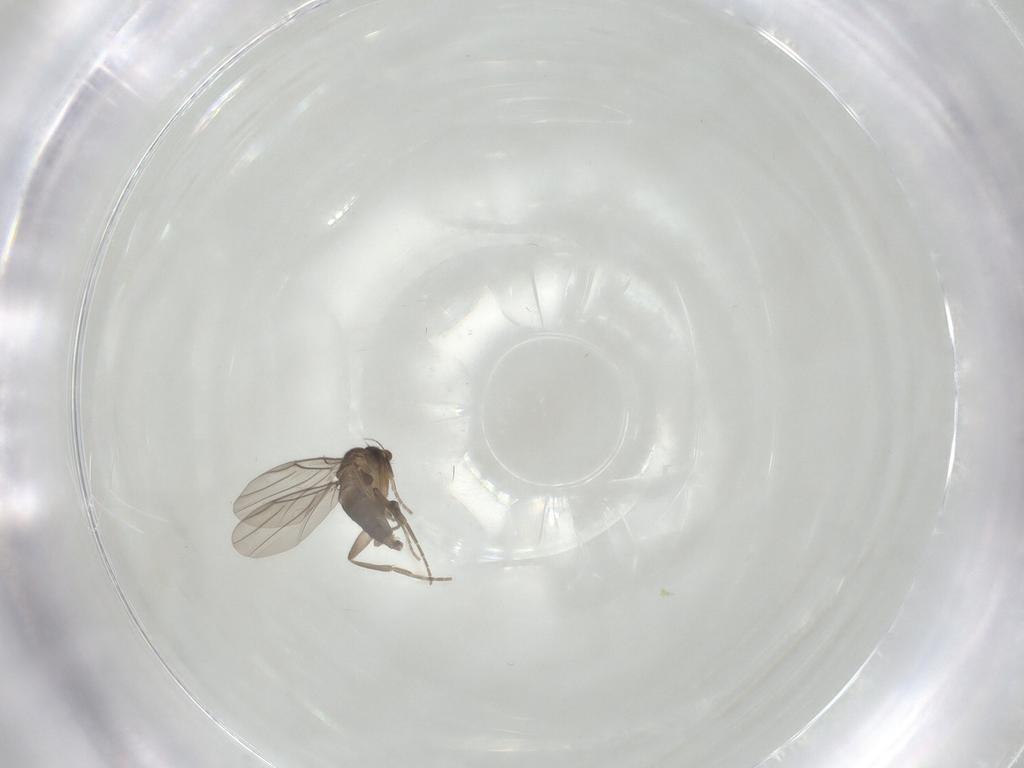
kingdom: Animalia
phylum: Arthropoda
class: Insecta
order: Diptera
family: Phoridae
